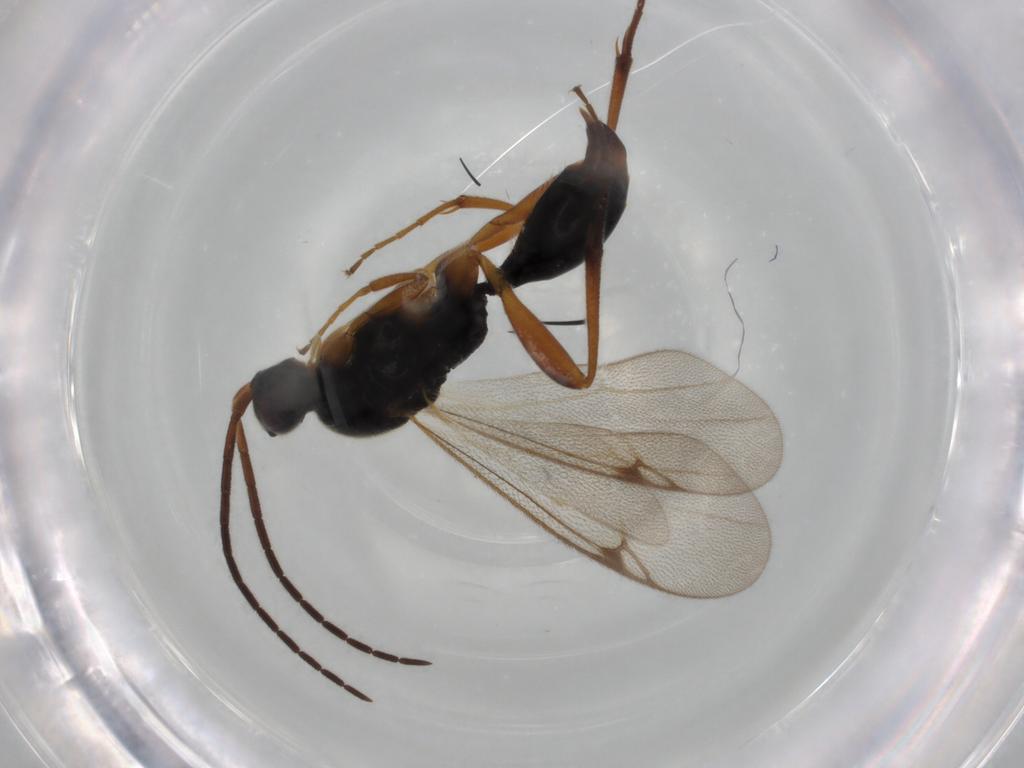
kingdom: Animalia
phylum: Arthropoda
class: Insecta
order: Hymenoptera
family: Proctotrupidae
